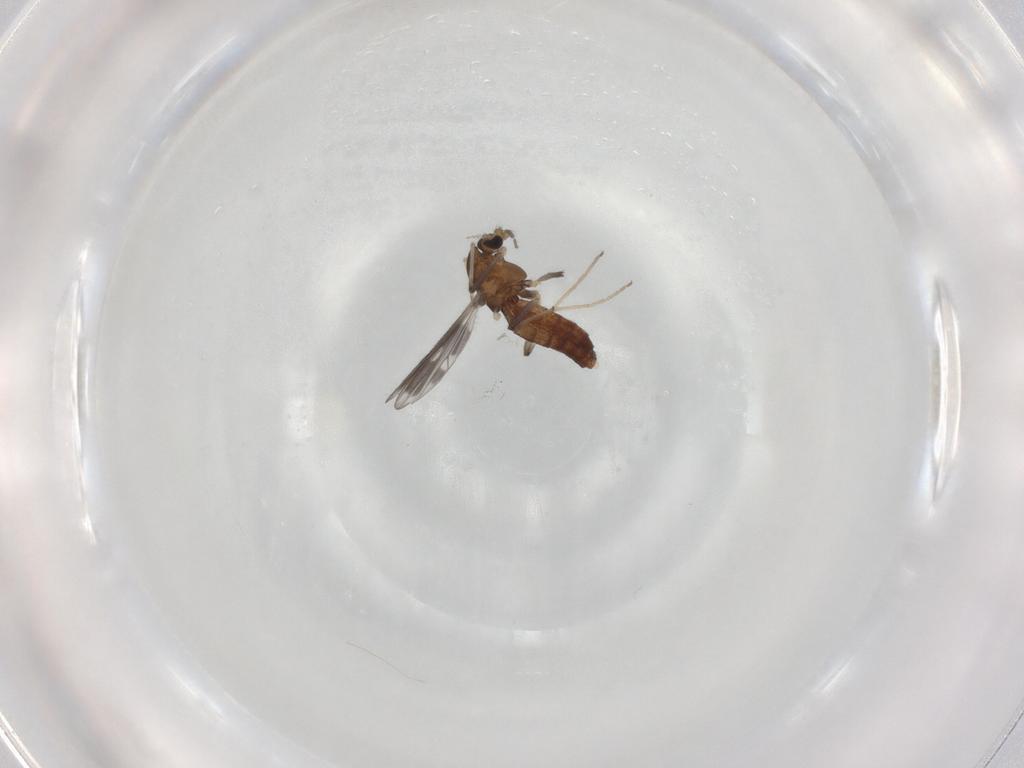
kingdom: Animalia
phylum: Arthropoda
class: Insecta
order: Diptera
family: Chironomidae
